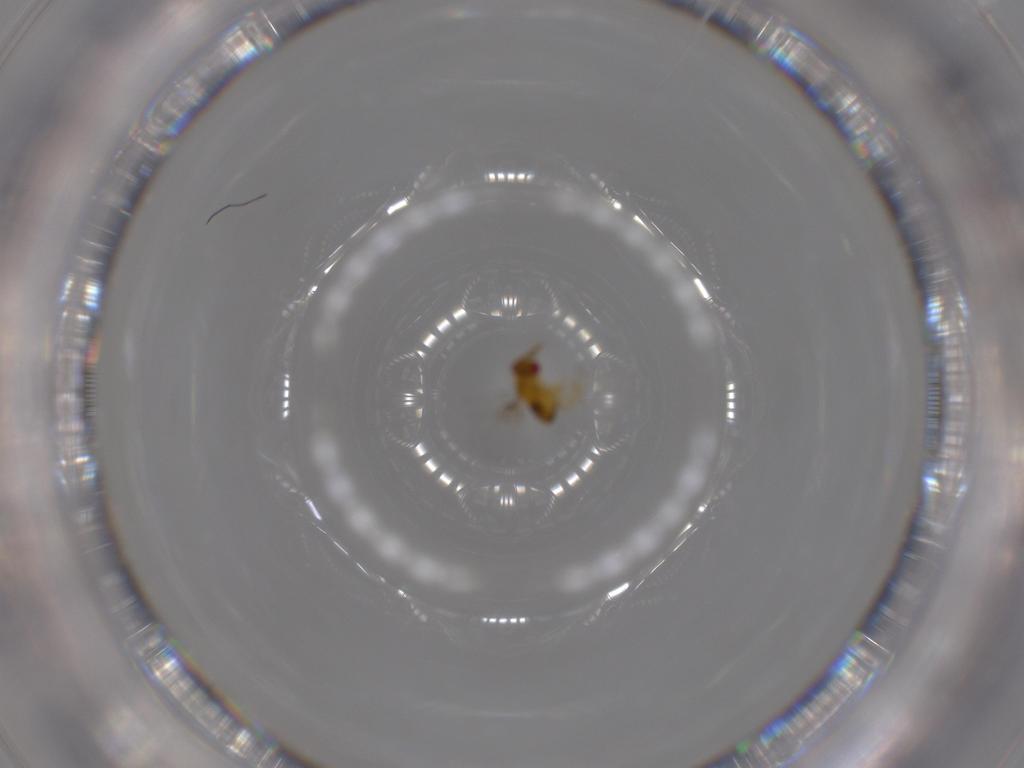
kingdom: Animalia
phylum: Arthropoda
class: Insecta
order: Hymenoptera
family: Trichogrammatidae
